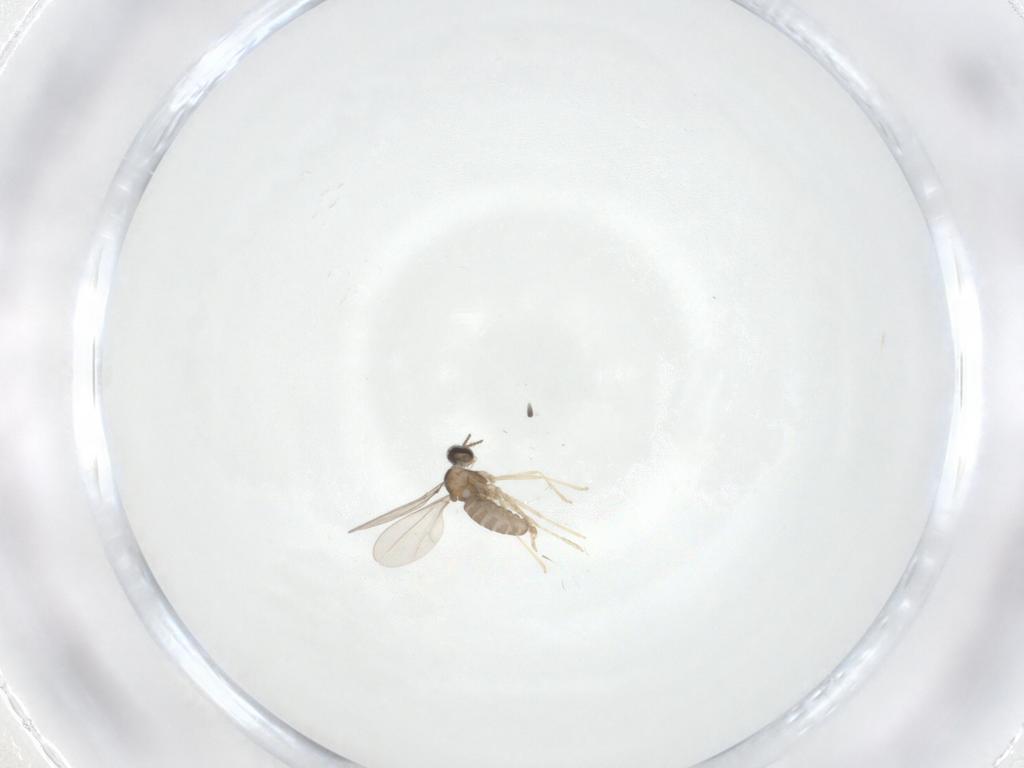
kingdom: Animalia
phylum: Arthropoda
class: Insecta
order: Diptera
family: Cecidomyiidae
